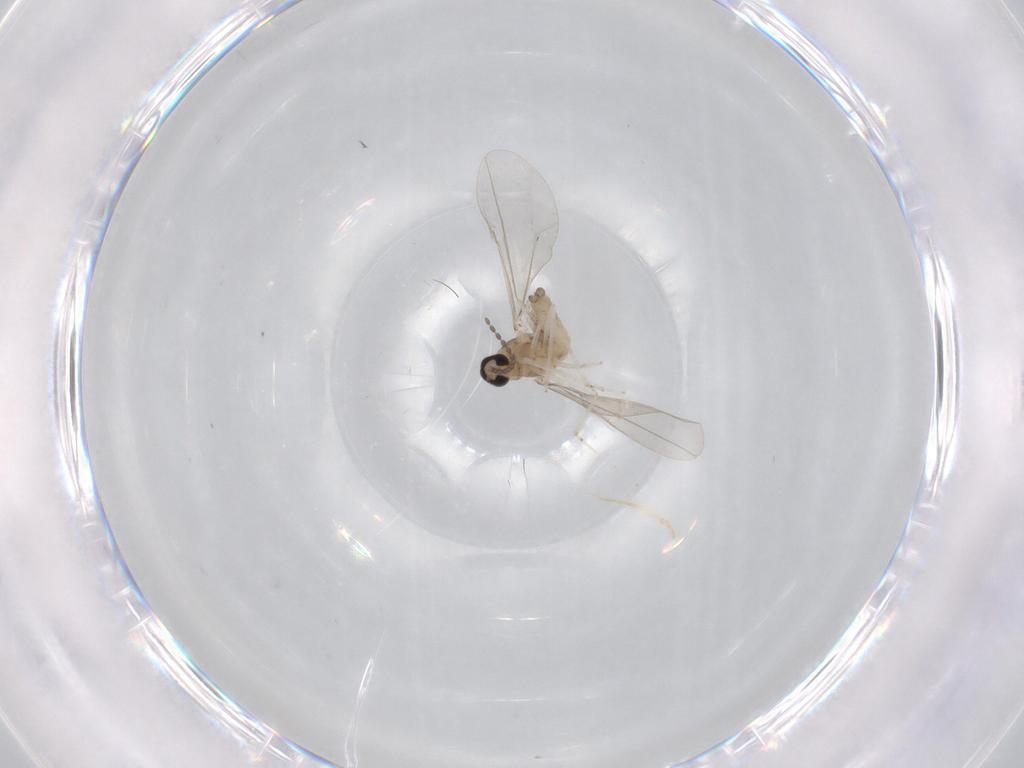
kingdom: Animalia
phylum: Arthropoda
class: Insecta
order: Diptera
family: Cecidomyiidae
